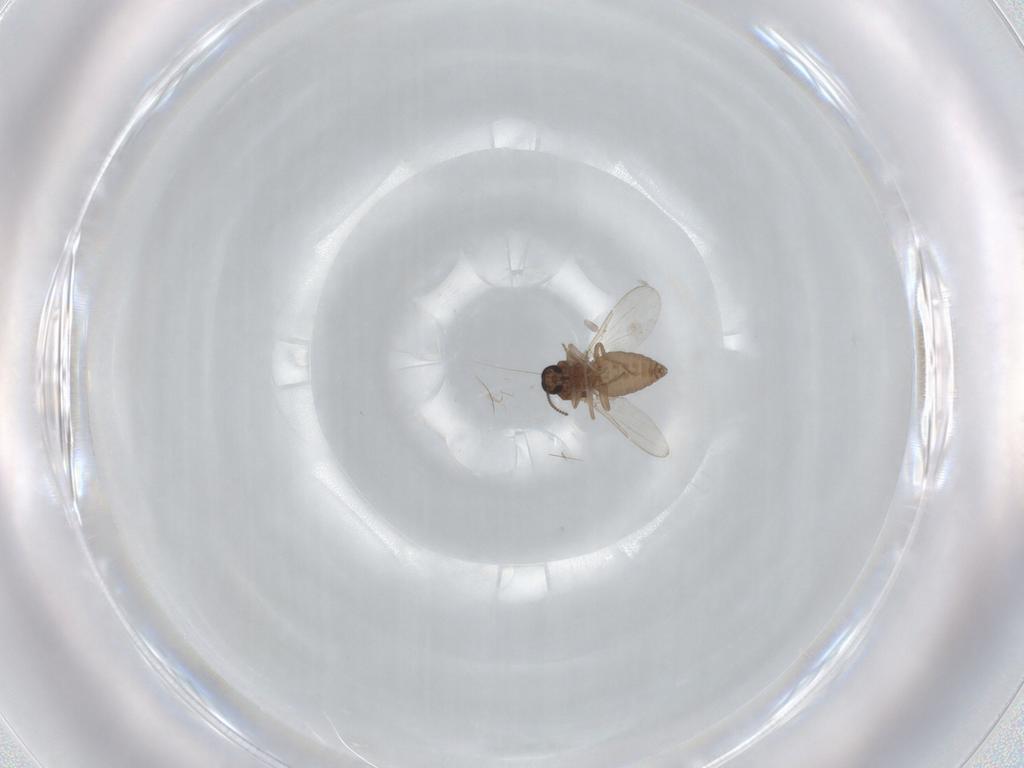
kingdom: Animalia
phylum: Arthropoda
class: Insecta
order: Diptera
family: Ceratopogonidae
